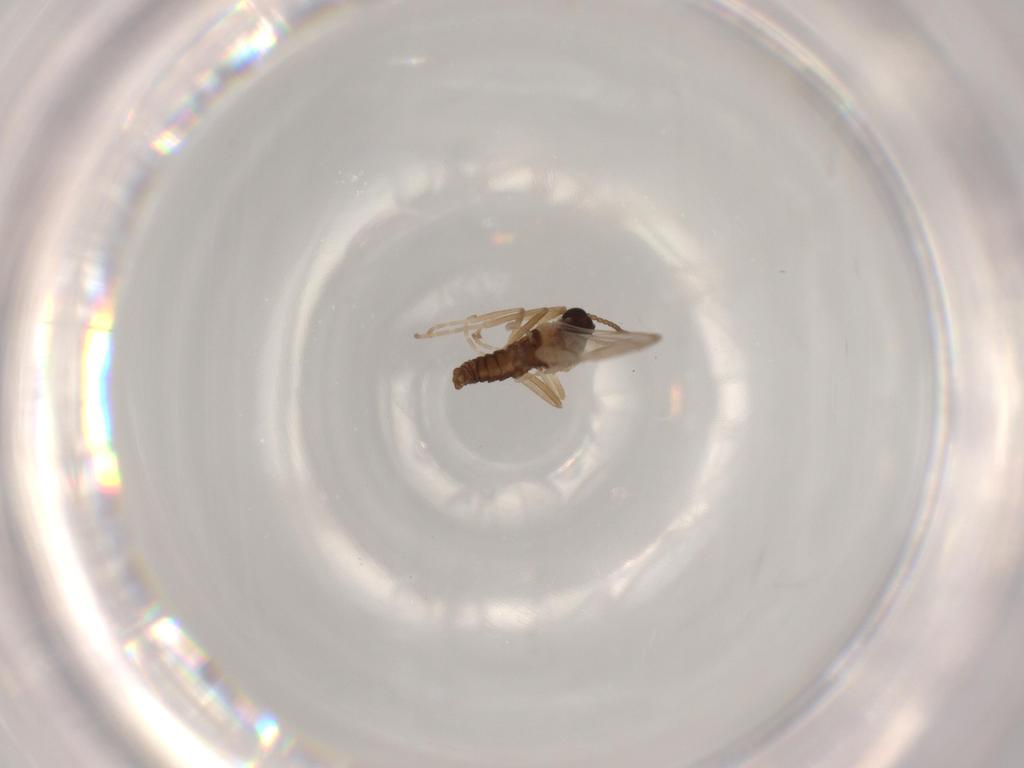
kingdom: Animalia
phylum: Arthropoda
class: Insecta
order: Diptera
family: Cecidomyiidae
